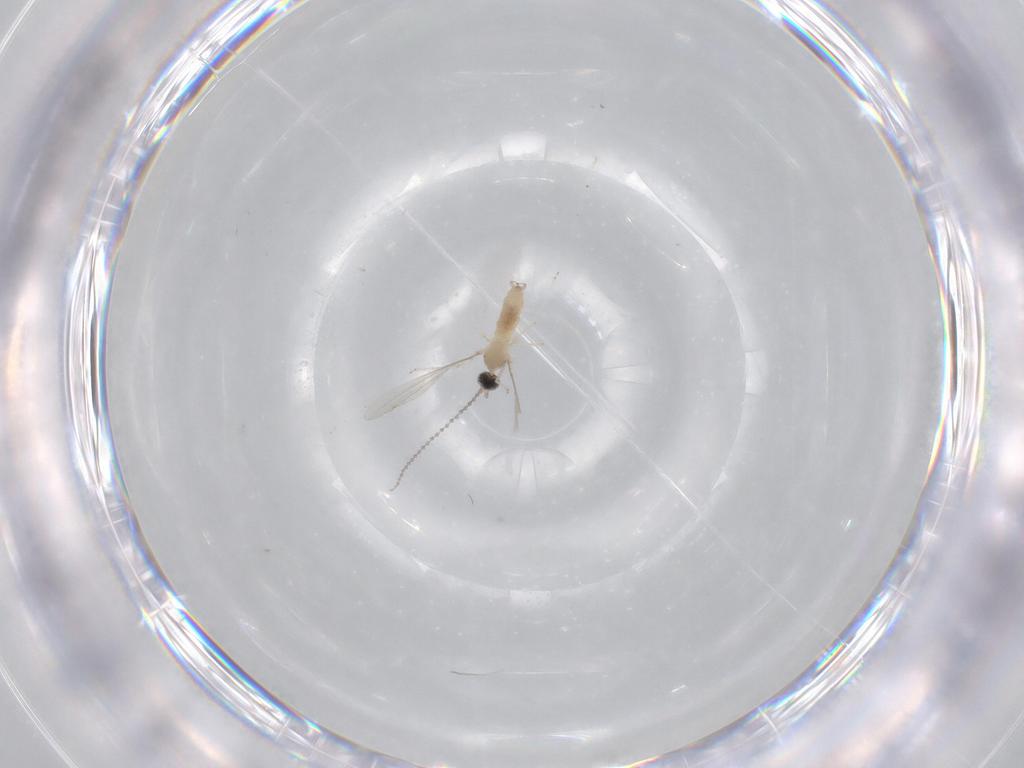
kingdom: Animalia
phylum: Arthropoda
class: Insecta
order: Diptera
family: Cecidomyiidae
